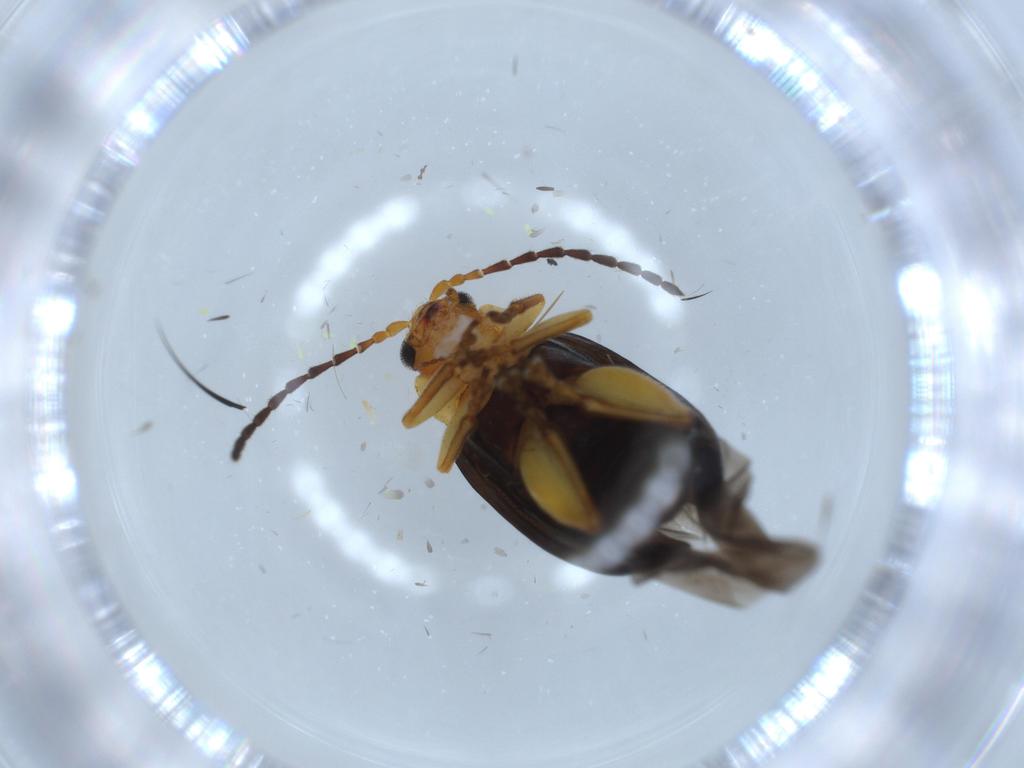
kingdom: Animalia
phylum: Arthropoda
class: Insecta
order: Coleoptera
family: Chrysomelidae
